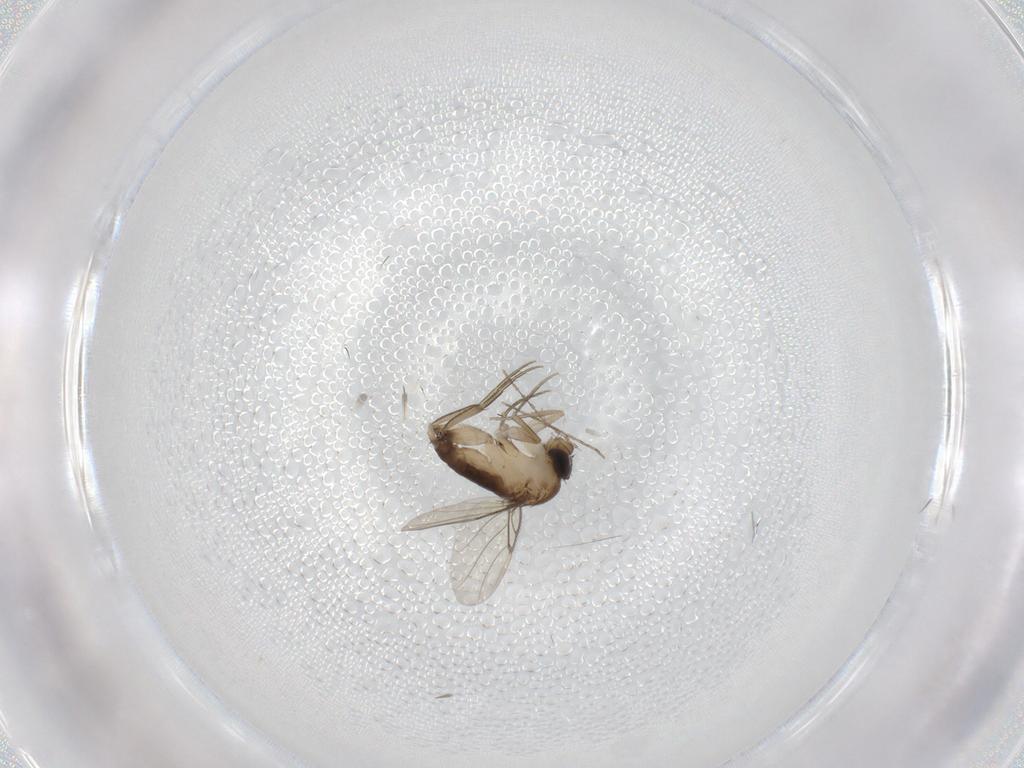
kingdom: Animalia
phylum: Arthropoda
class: Insecta
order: Diptera
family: Phoridae
